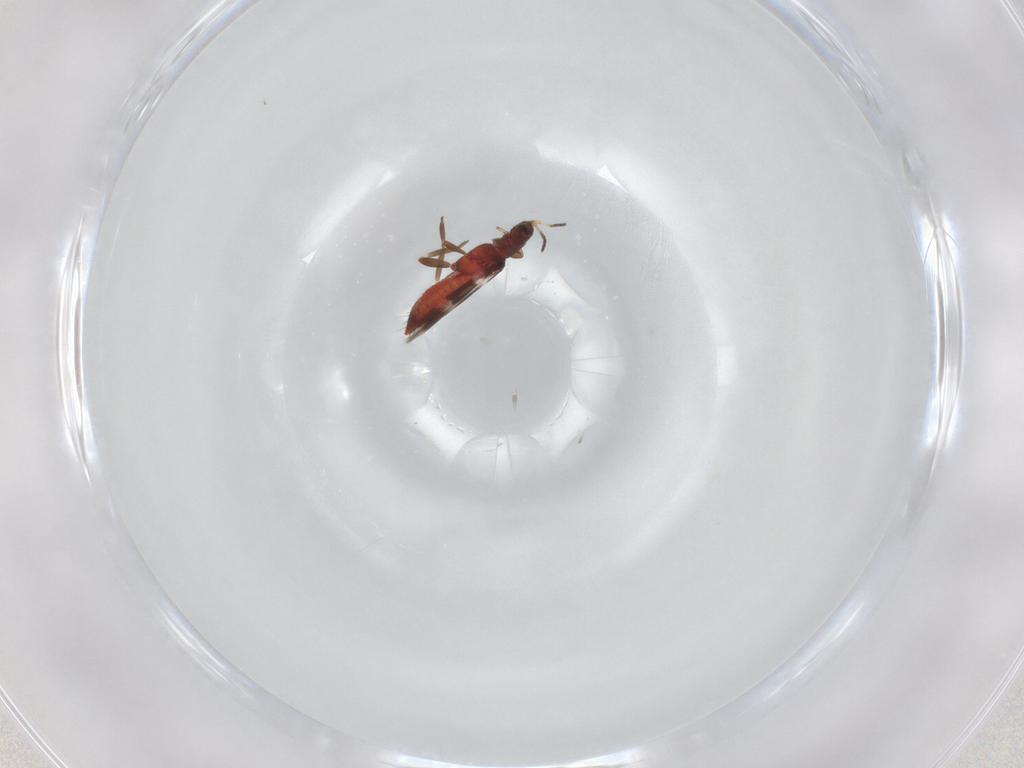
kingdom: Animalia
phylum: Arthropoda
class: Insecta
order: Thysanoptera
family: Aeolothripidae
